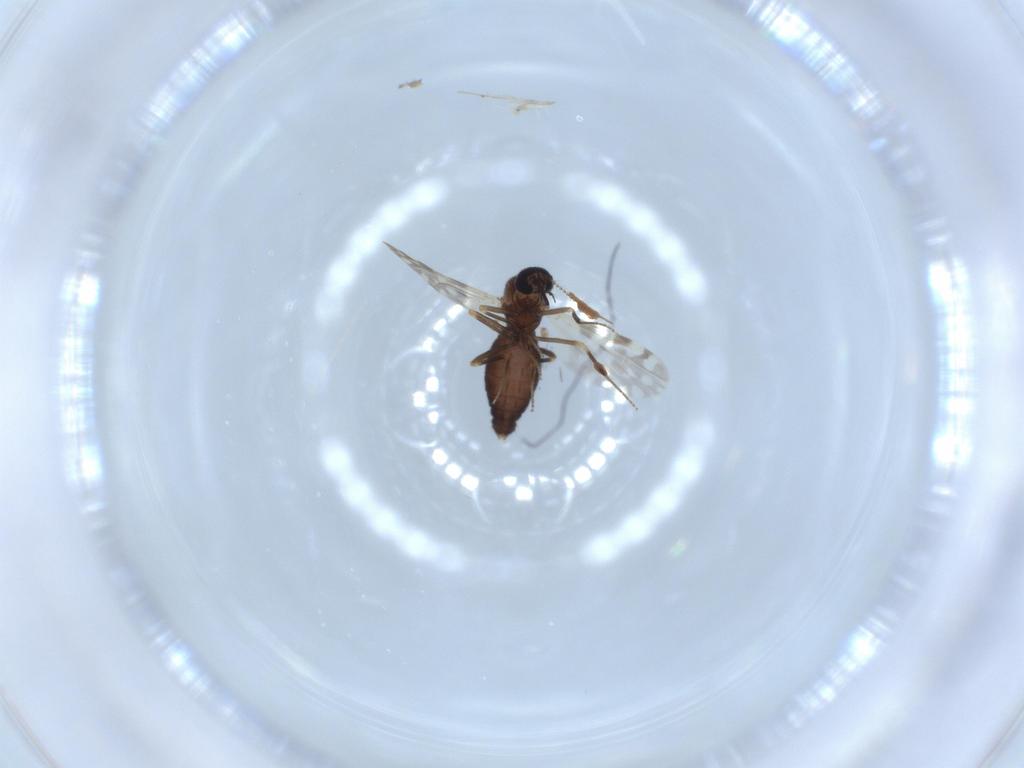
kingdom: Animalia
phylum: Arthropoda
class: Insecta
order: Diptera
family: Ceratopogonidae
